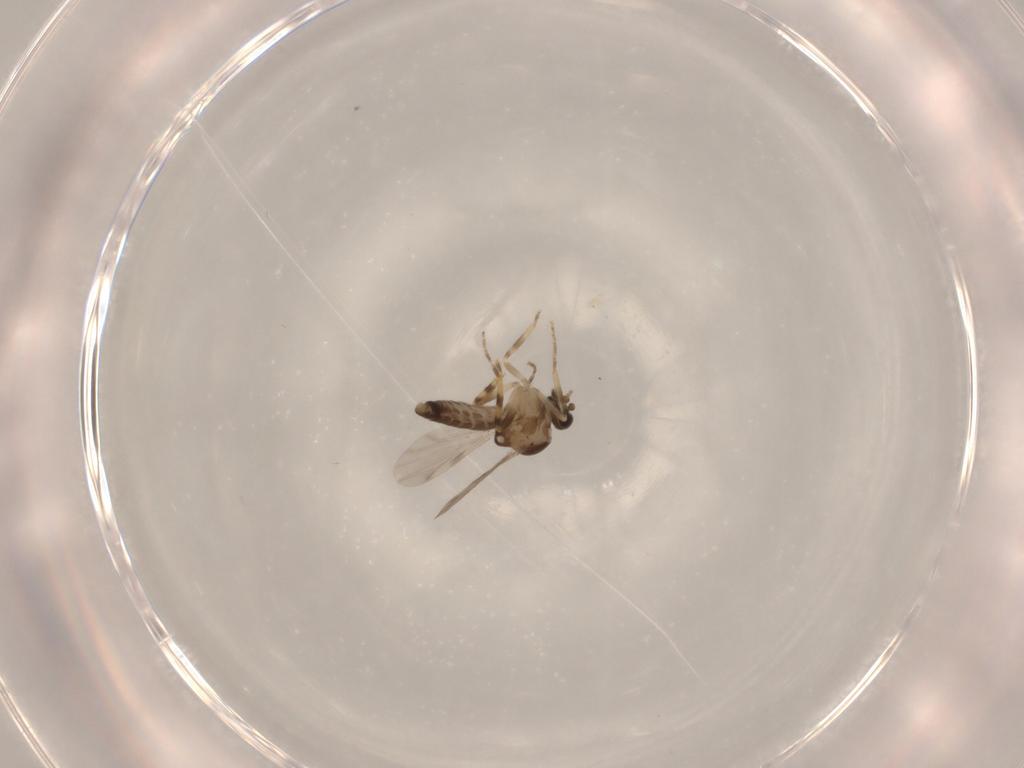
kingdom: Animalia
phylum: Arthropoda
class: Insecta
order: Diptera
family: Ceratopogonidae
